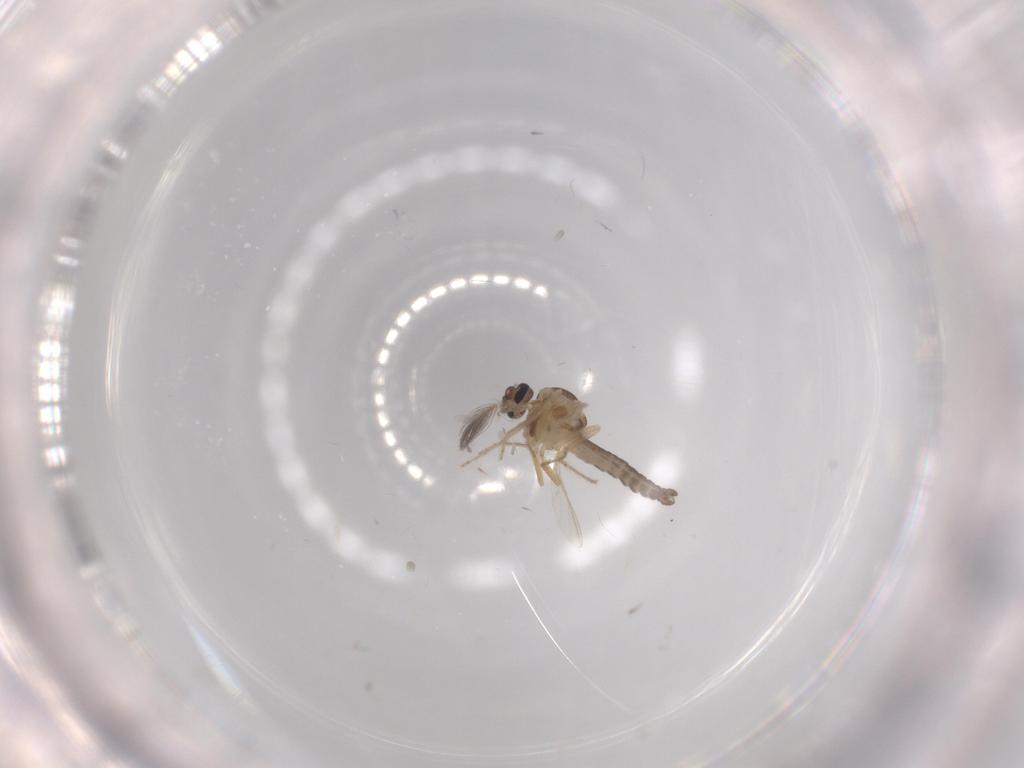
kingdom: Animalia
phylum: Arthropoda
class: Insecta
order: Diptera
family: Ceratopogonidae
